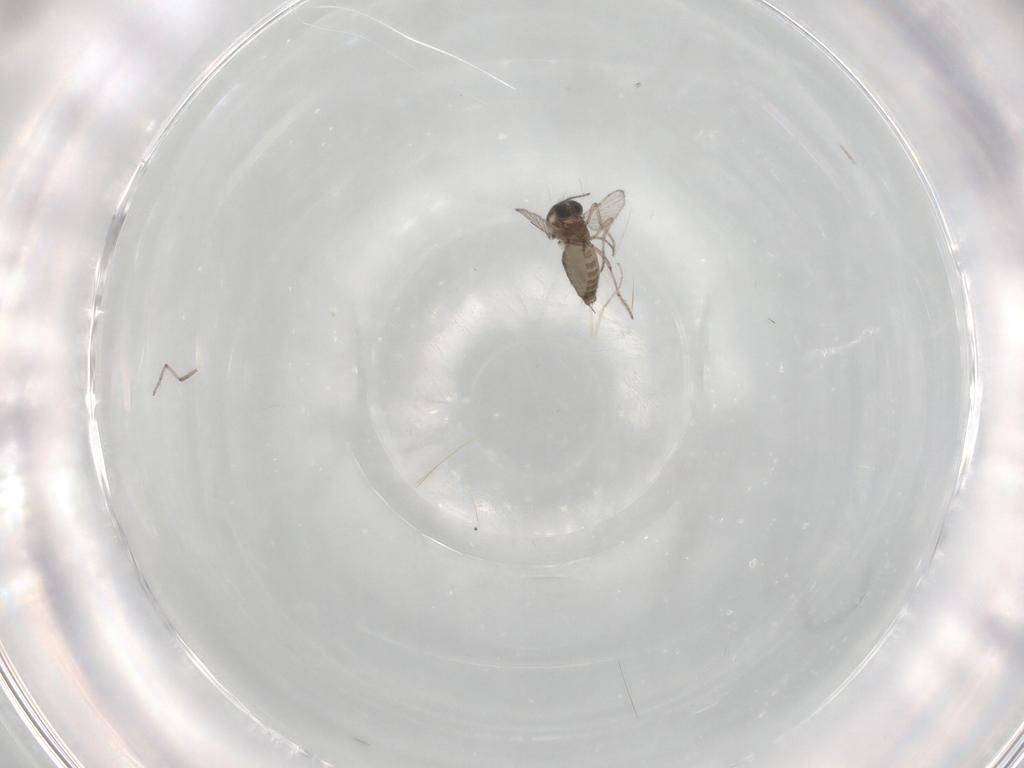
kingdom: Animalia
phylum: Arthropoda
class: Insecta
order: Diptera
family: Ceratopogonidae
